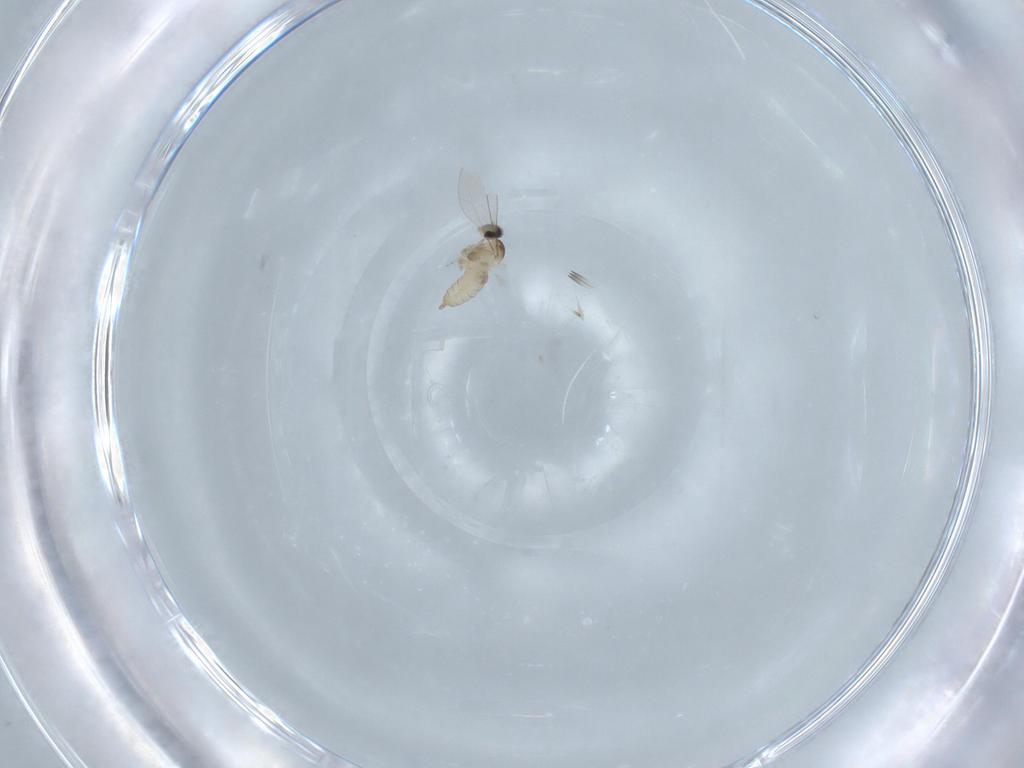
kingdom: Animalia
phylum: Arthropoda
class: Insecta
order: Diptera
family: Cecidomyiidae
